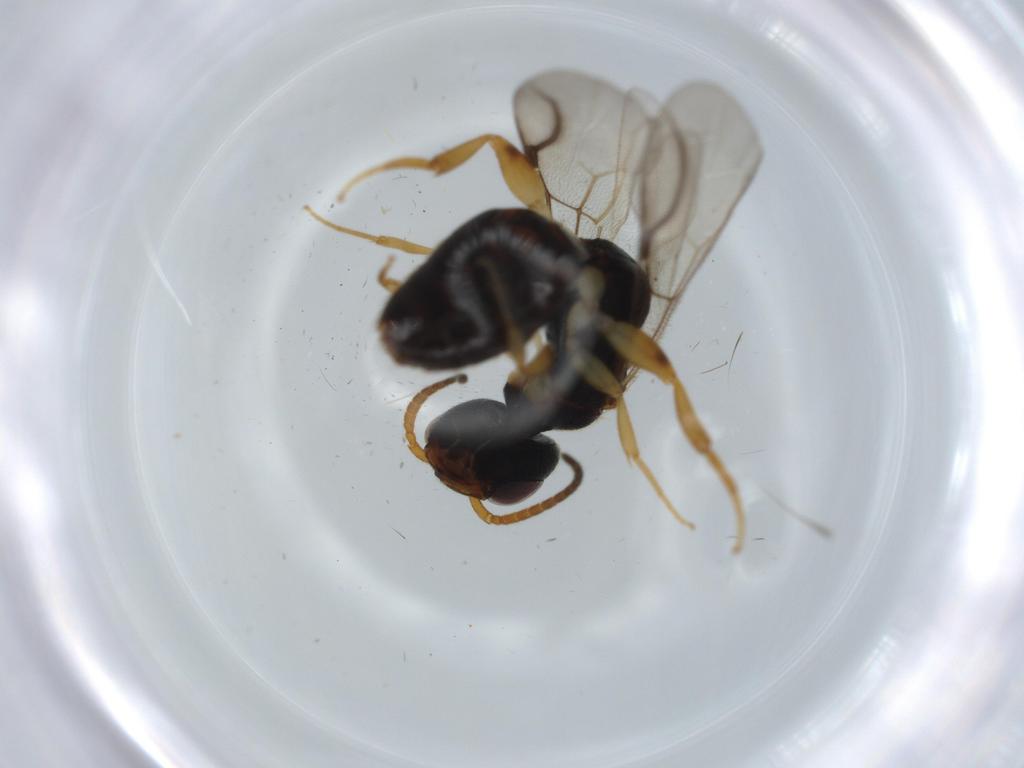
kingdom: Animalia
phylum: Arthropoda
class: Insecta
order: Hymenoptera
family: Bethylidae
